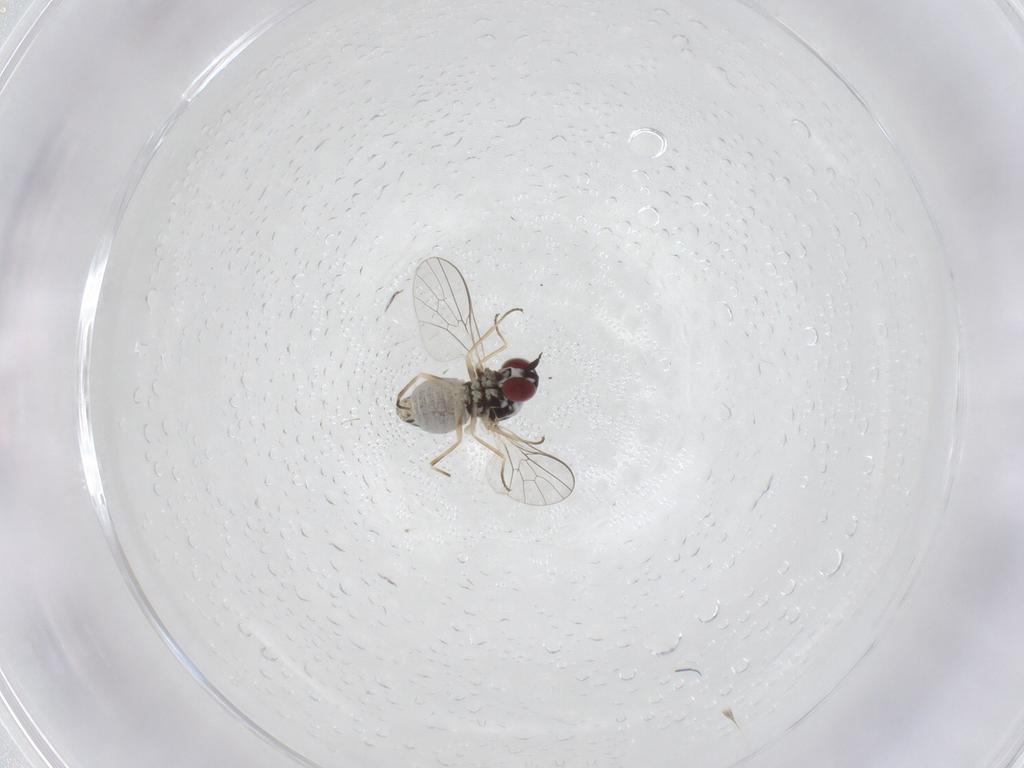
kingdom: Animalia
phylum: Arthropoda
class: Insecta
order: Diptera
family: Bombyliidae
